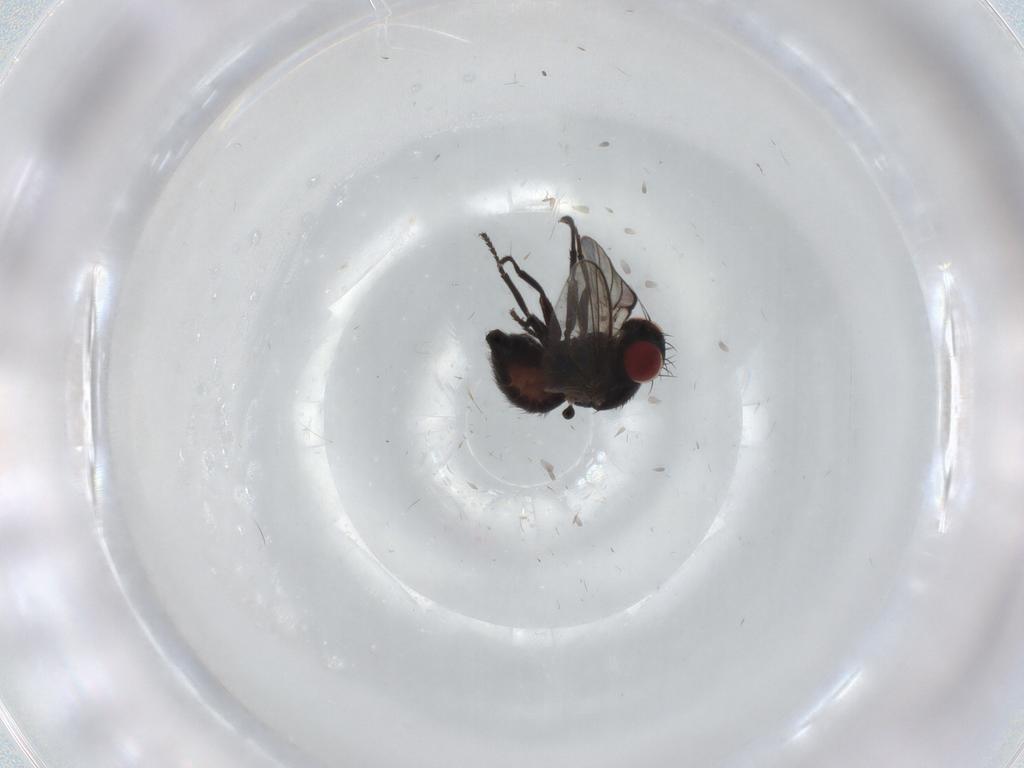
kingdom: Animalia
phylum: Arthropoda
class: Insecta
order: Diptera
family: Agromyzidae
